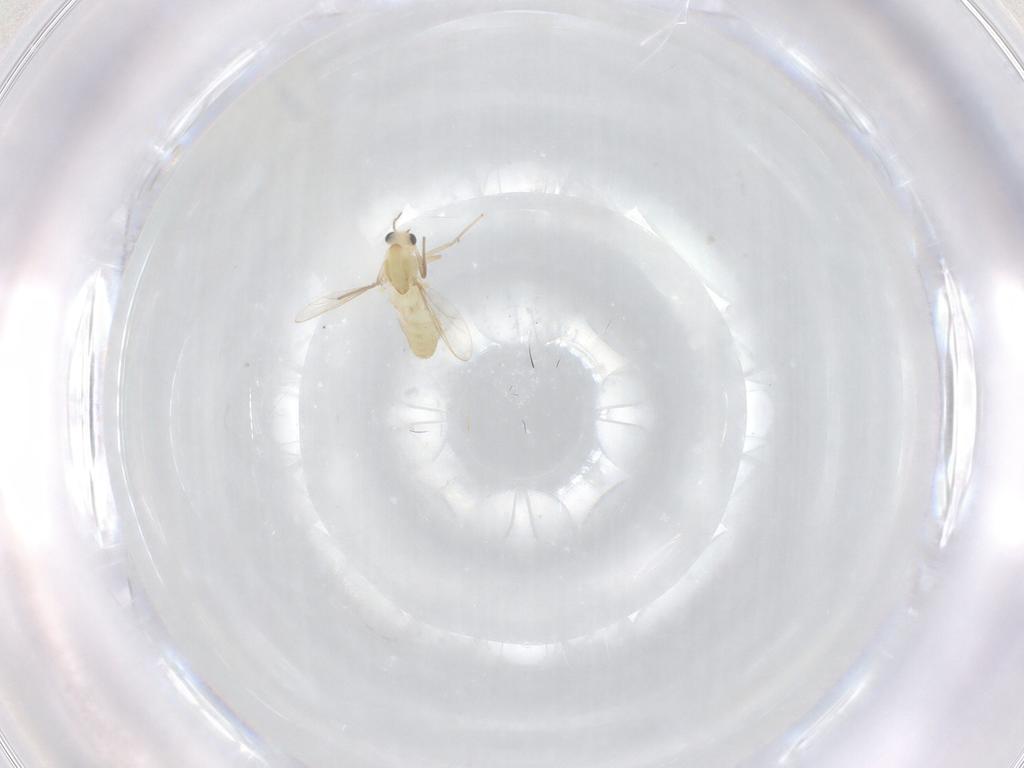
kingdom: Animalia
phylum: Arthropoda
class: Insecta
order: Diptera
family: Chironomidae
